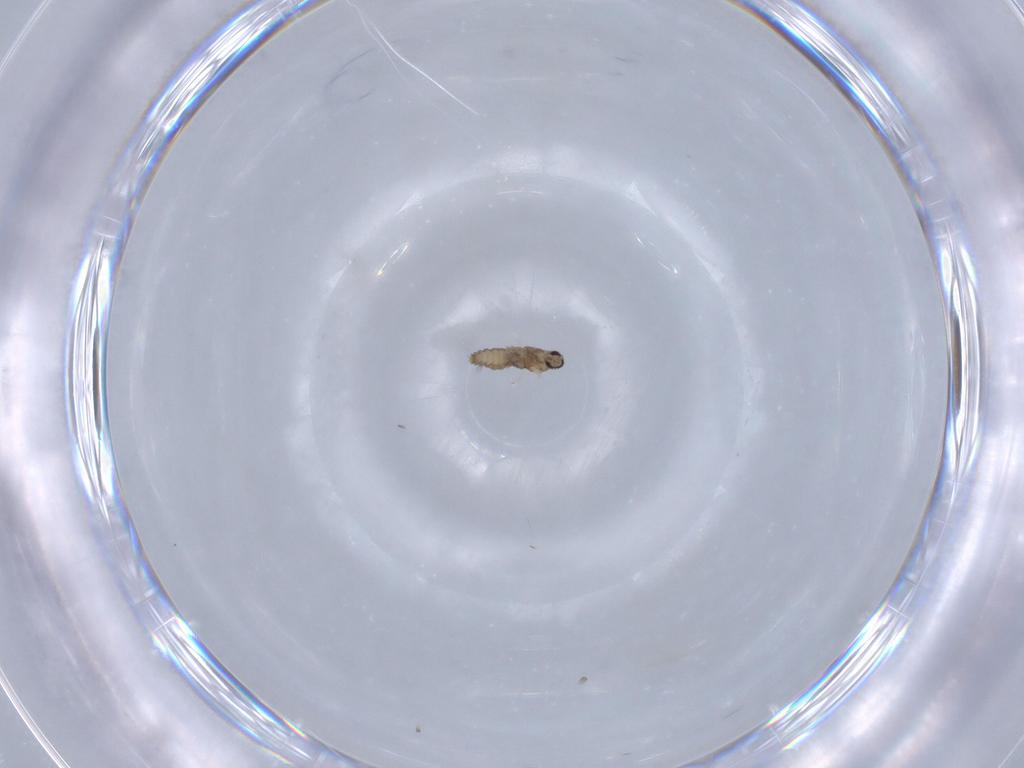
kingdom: Animalia
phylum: Arthropoda
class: Insecta
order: Diptera
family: Cecidomyiidae
